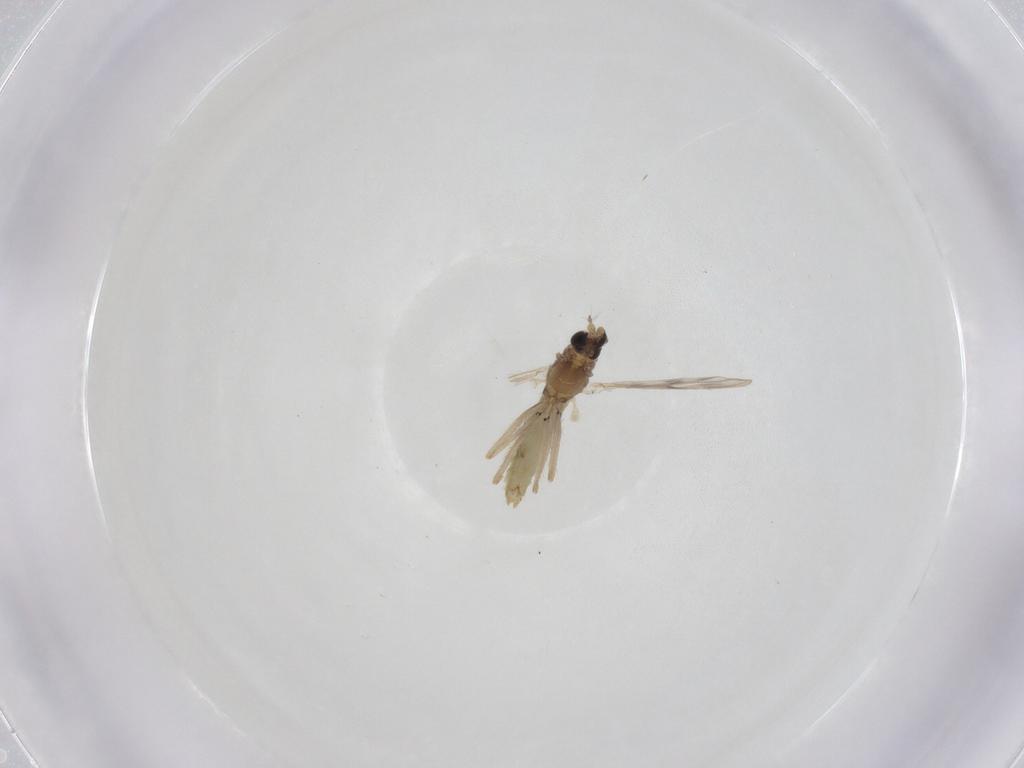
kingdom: Animalia
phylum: Arthropoda
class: Insecta
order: Diptera
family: Chironomidae
